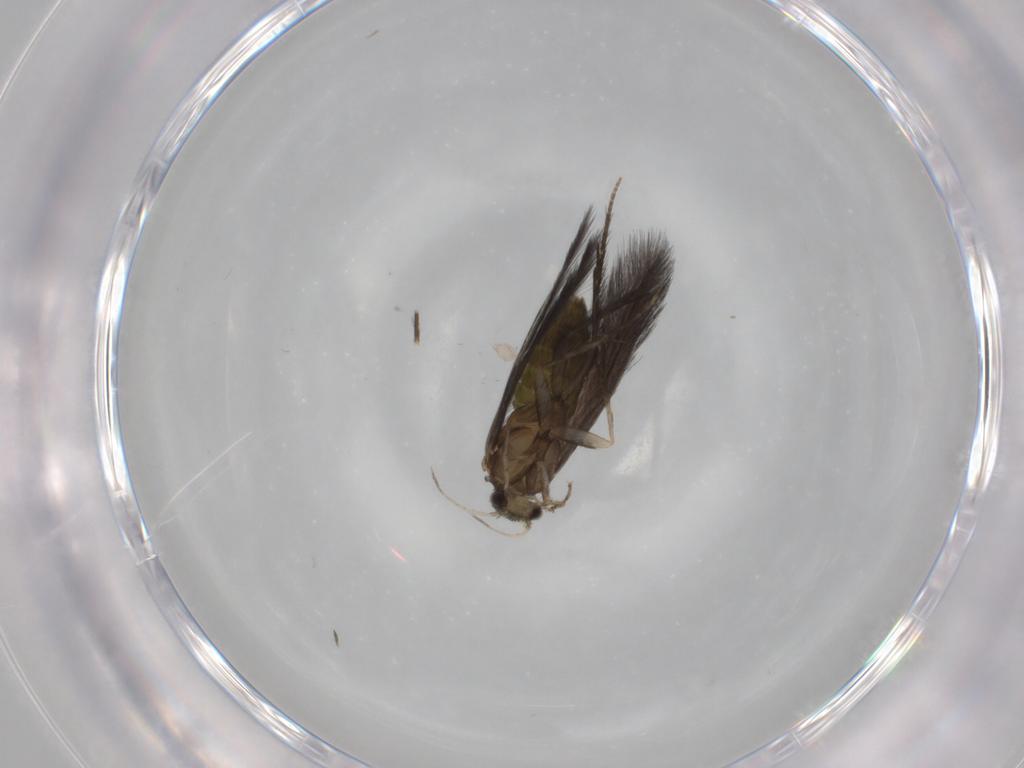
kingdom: Animalia
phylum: Arthropoda
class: Insecta
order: Trichoptera
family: Hydroptilidae
